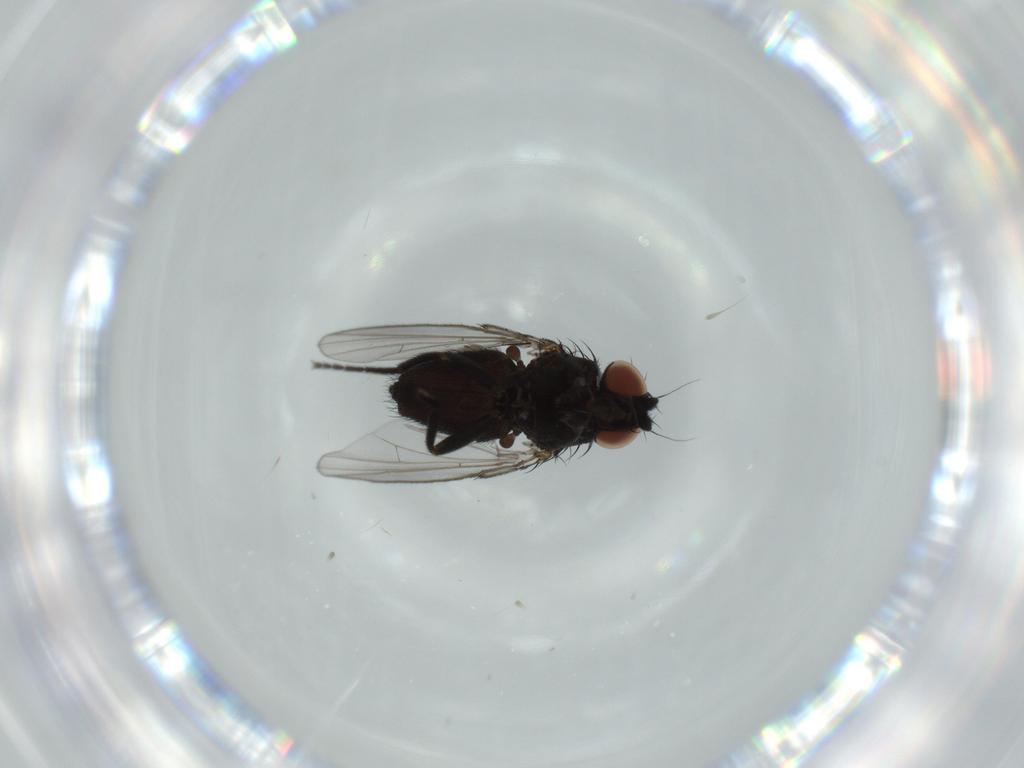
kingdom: Animalia
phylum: Arthropoda
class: Insecta
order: Diptera
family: Milichiidae
